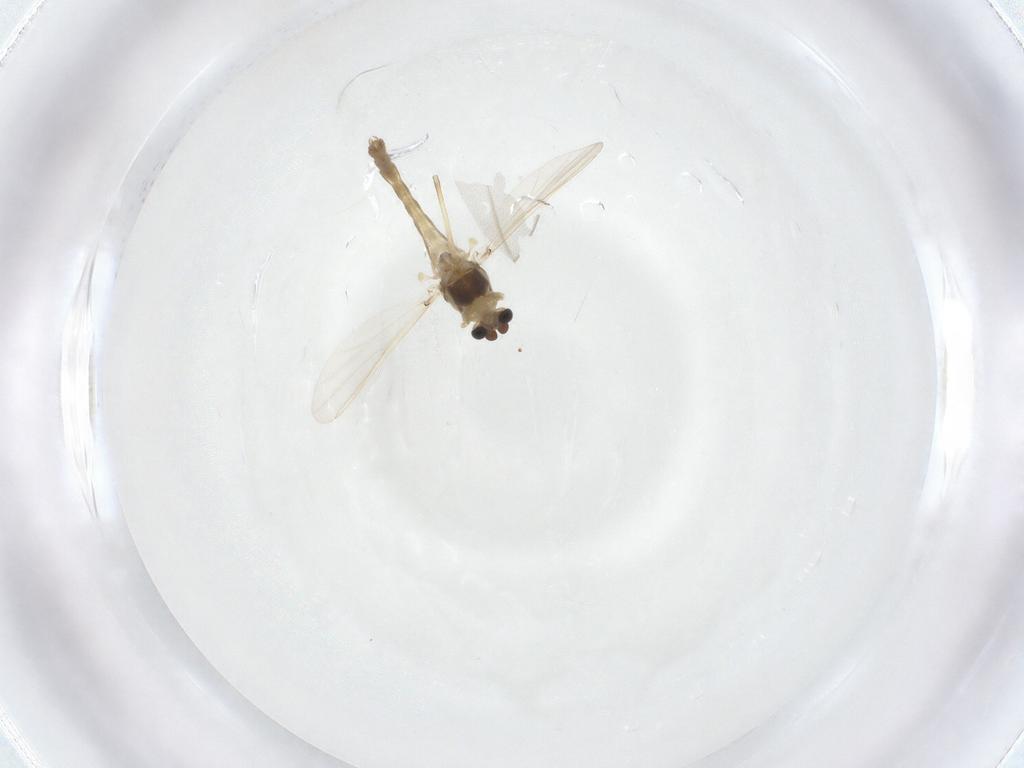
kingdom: Animalia
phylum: Arthropoda
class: Insecta
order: Diptera
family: Chironomidae
